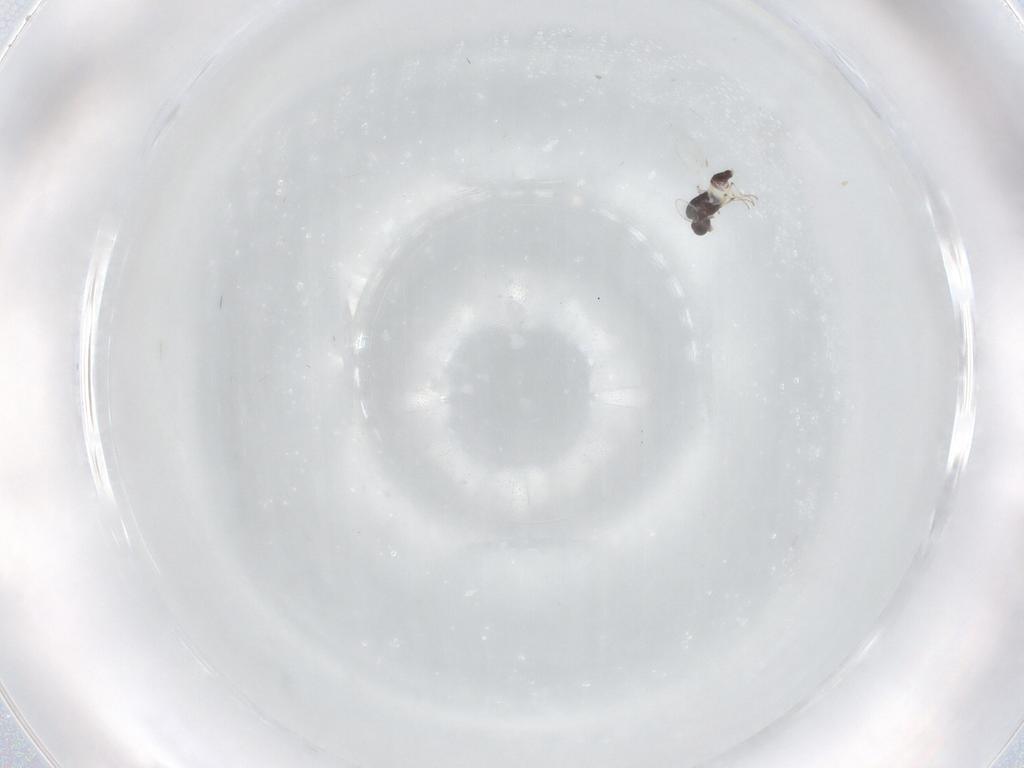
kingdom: Animalia
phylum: Arthropoda
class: Insecta
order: Diptera
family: Chironomidae
